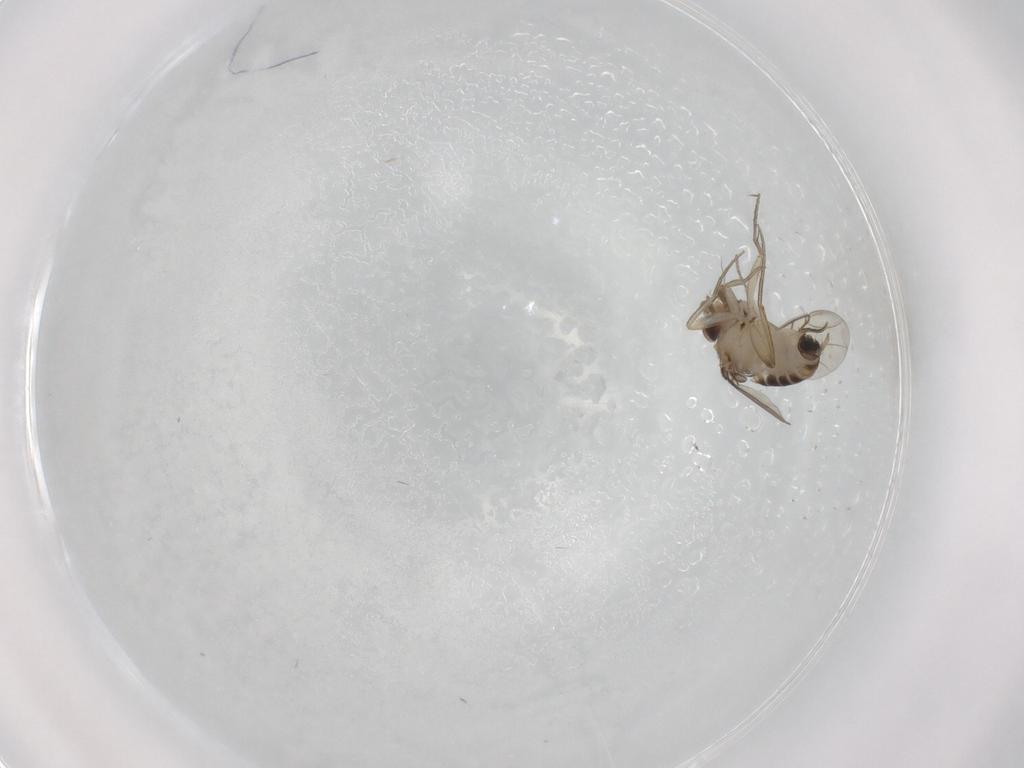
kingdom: Animalia
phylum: Arthropoda
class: Insecta
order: Diptera
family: Phoridae
